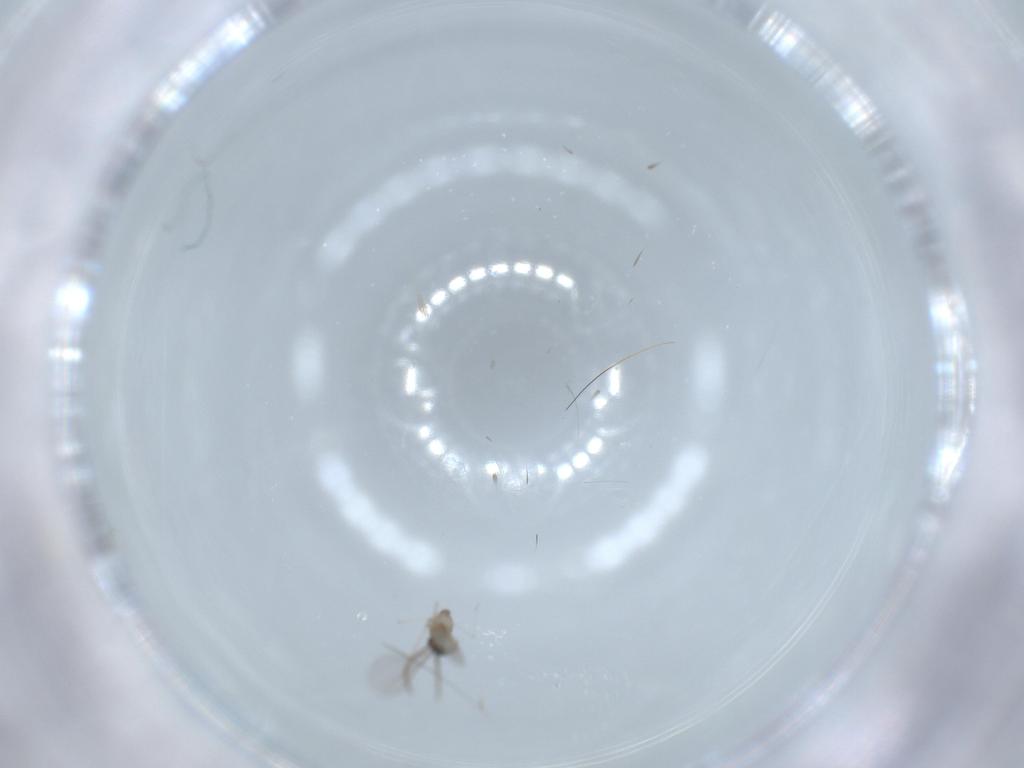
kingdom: Animalia
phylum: Arthropoda
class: Insecta
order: Diptera
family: Cecidomyiidae
